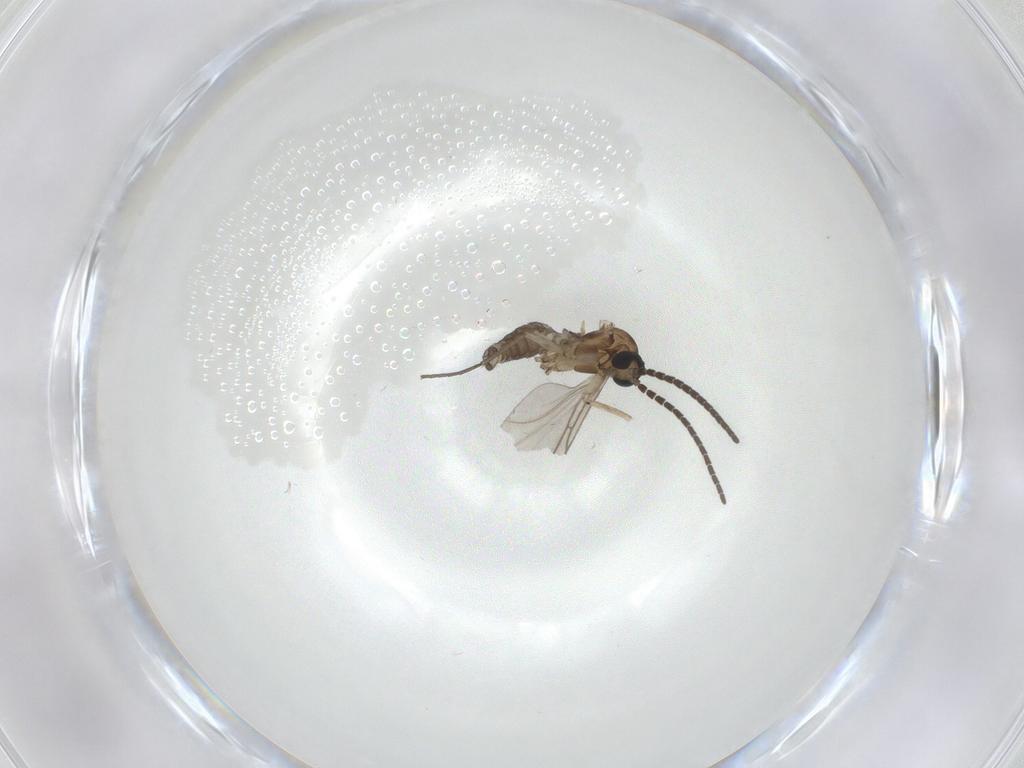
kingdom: Animalia
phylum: Arthropoda
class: Insecta
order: Diptera
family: Sciaridae
